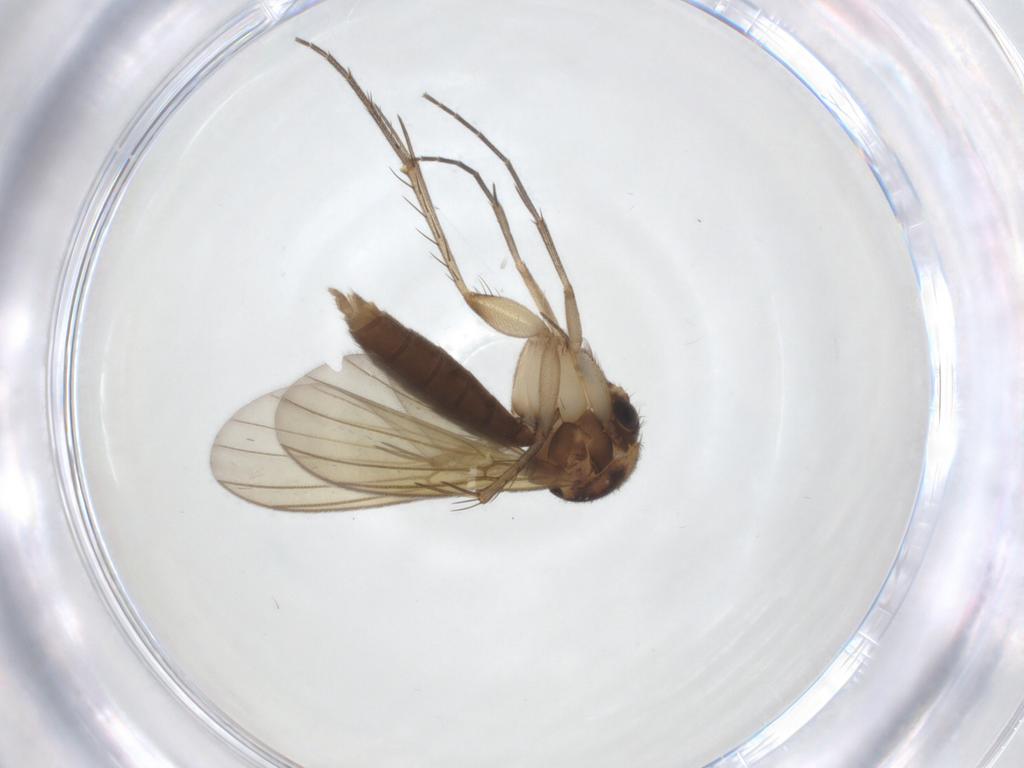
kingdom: Animalia
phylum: Arthropoda
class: Insecta
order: Diptera
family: Mycetophilidae
